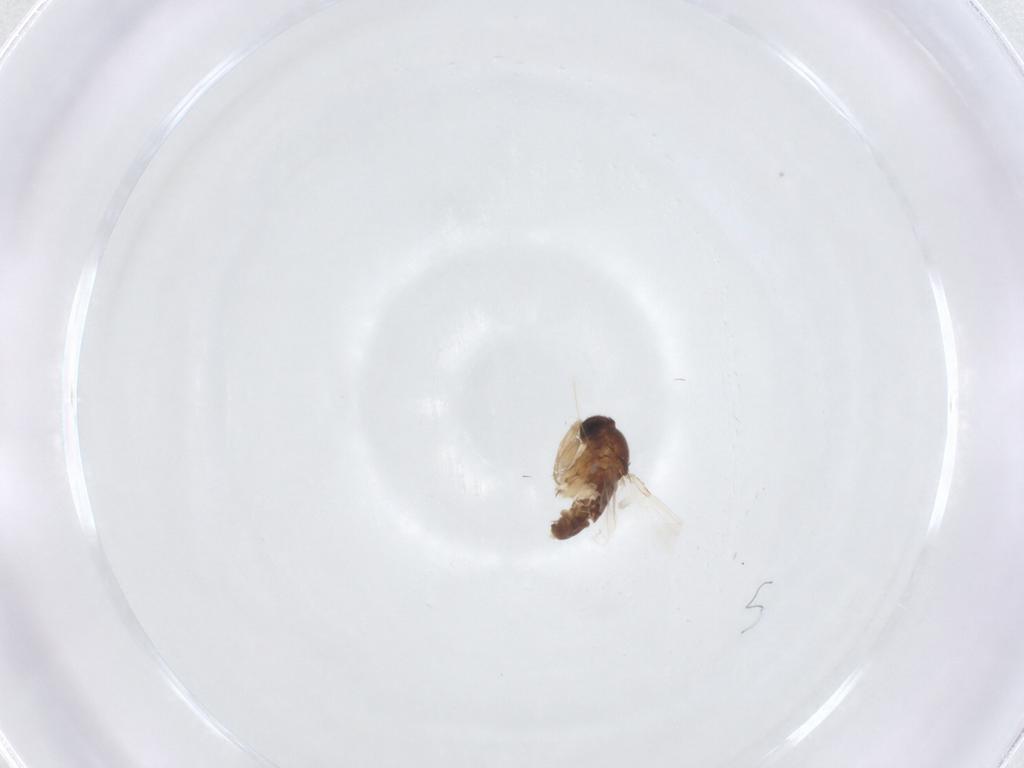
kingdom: Animalia
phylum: Arthropoda
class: Insecta
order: Diptera
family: Phoridae
